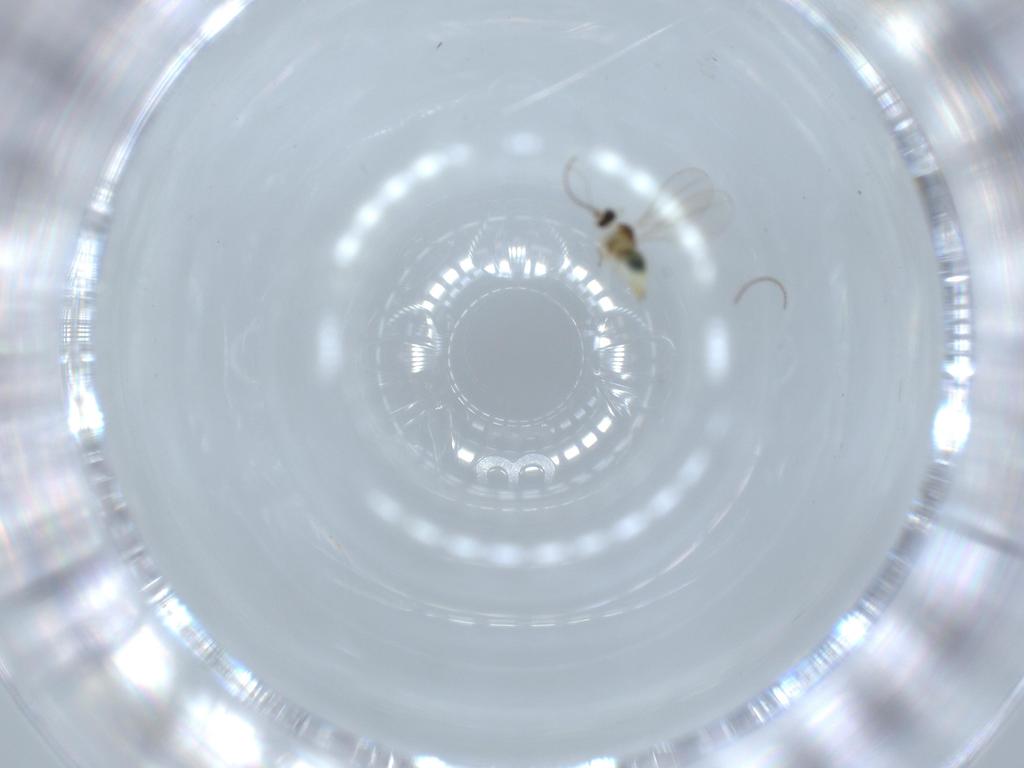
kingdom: Animalia
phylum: Arthropoda
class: Insecta
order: Diptera
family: Cecidomyiidae
